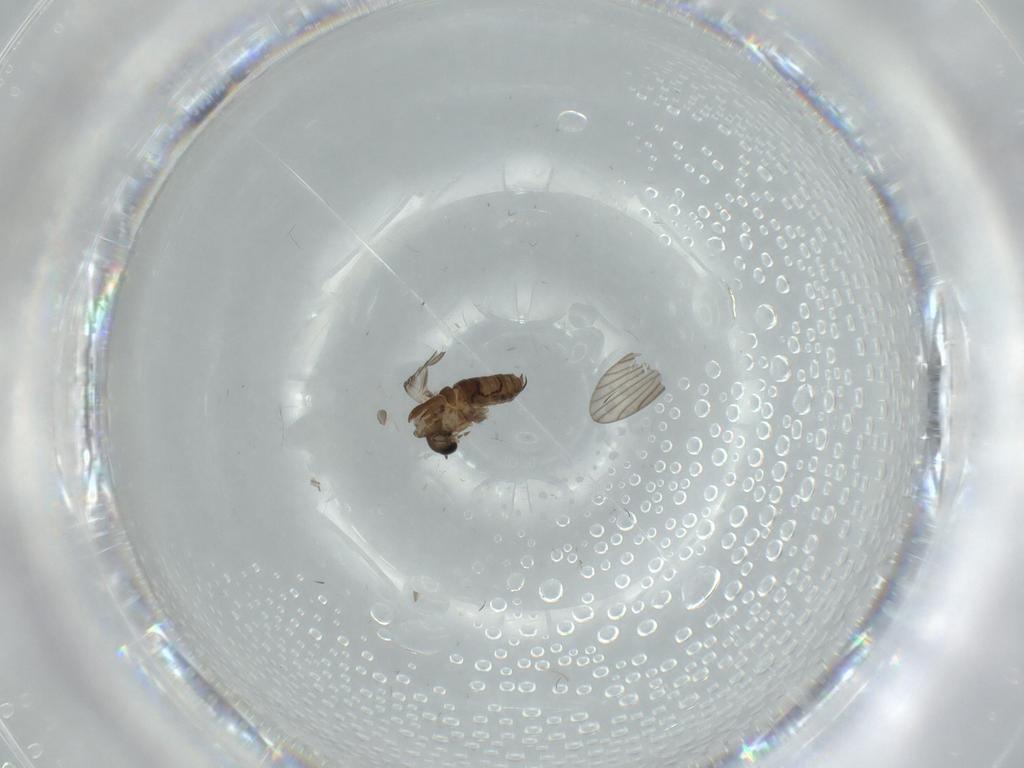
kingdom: Animalia
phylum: Arthropoda
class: Insecta
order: Diptera
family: Psychodidae
